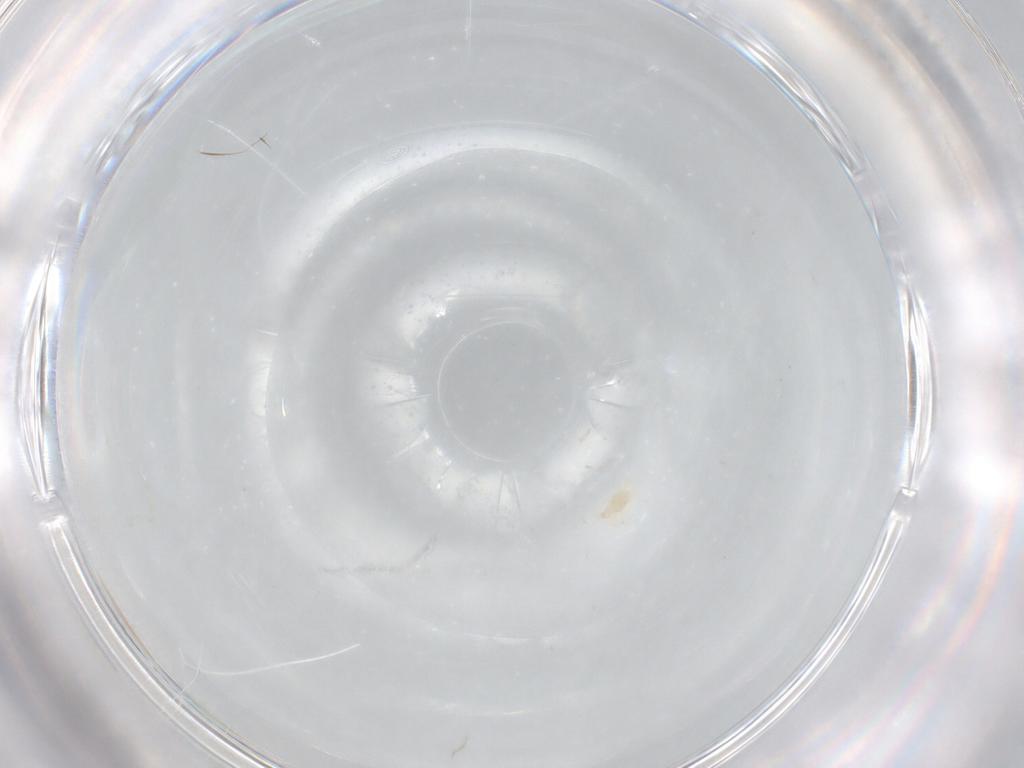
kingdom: Animalia
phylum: Arthropoda
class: Arachnida
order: Trombidiformes
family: Cunaxidae
